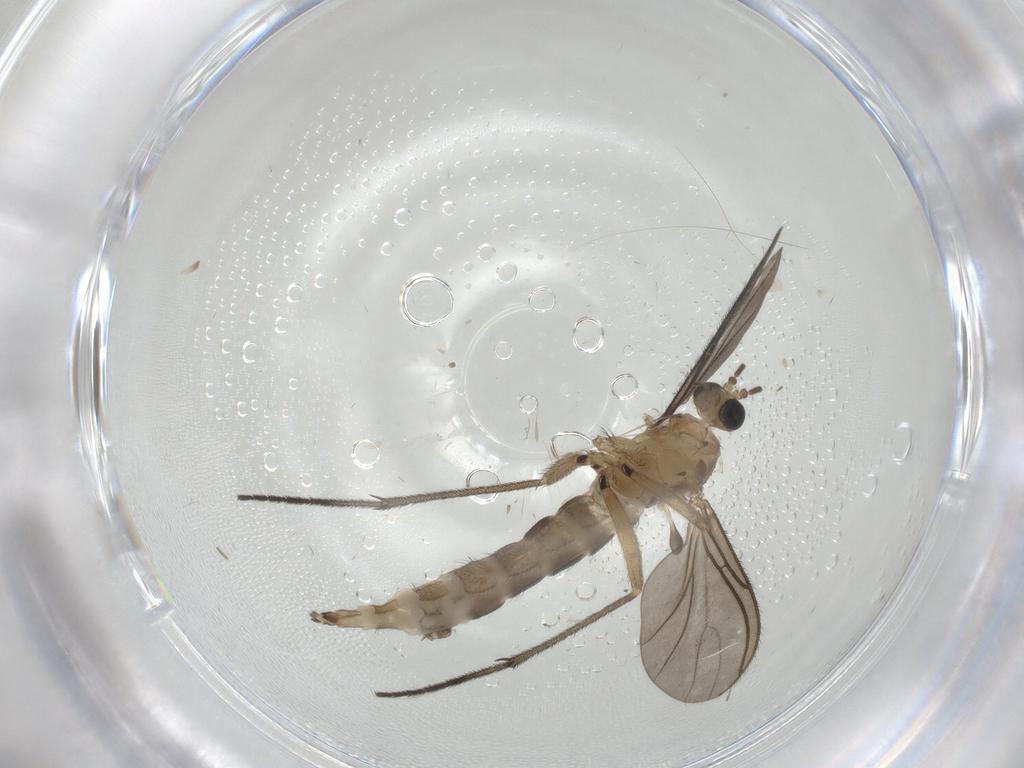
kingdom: Animalia
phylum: Arthropoda
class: Insecta
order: Diptera
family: Sciaridae
